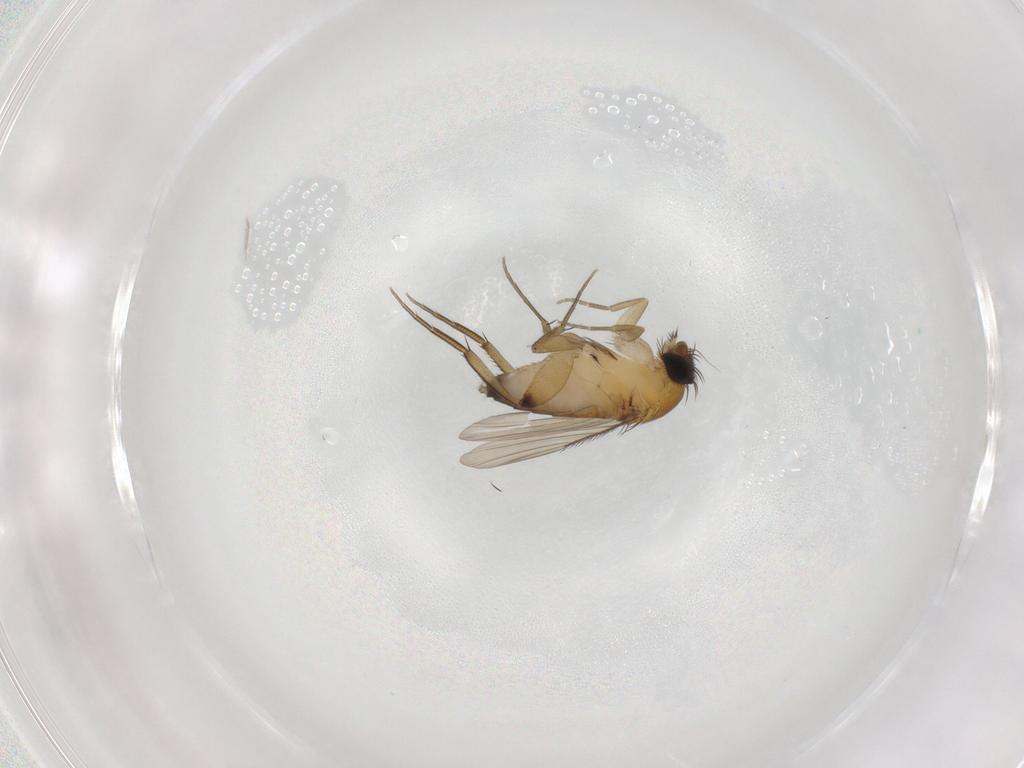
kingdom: Animalia
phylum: Arthropoda
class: Insecta
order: Diptera
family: Phoridae
